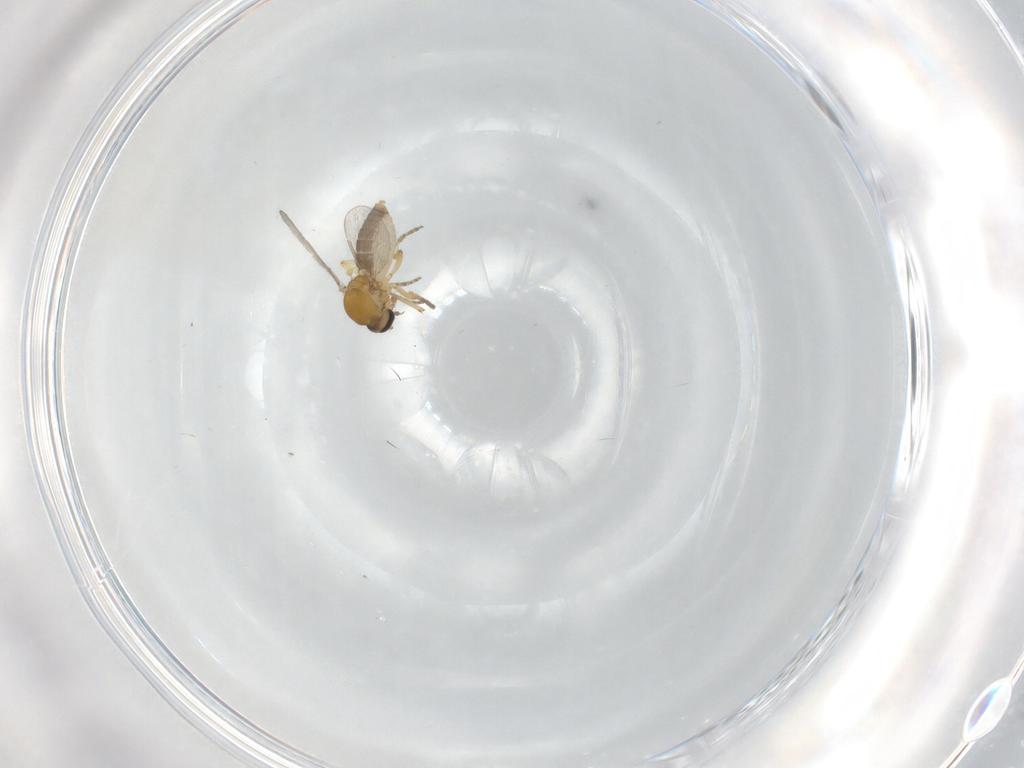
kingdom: Animalia
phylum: Arthropoda
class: Insecta
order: Diptera
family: Ceratopogonidae
